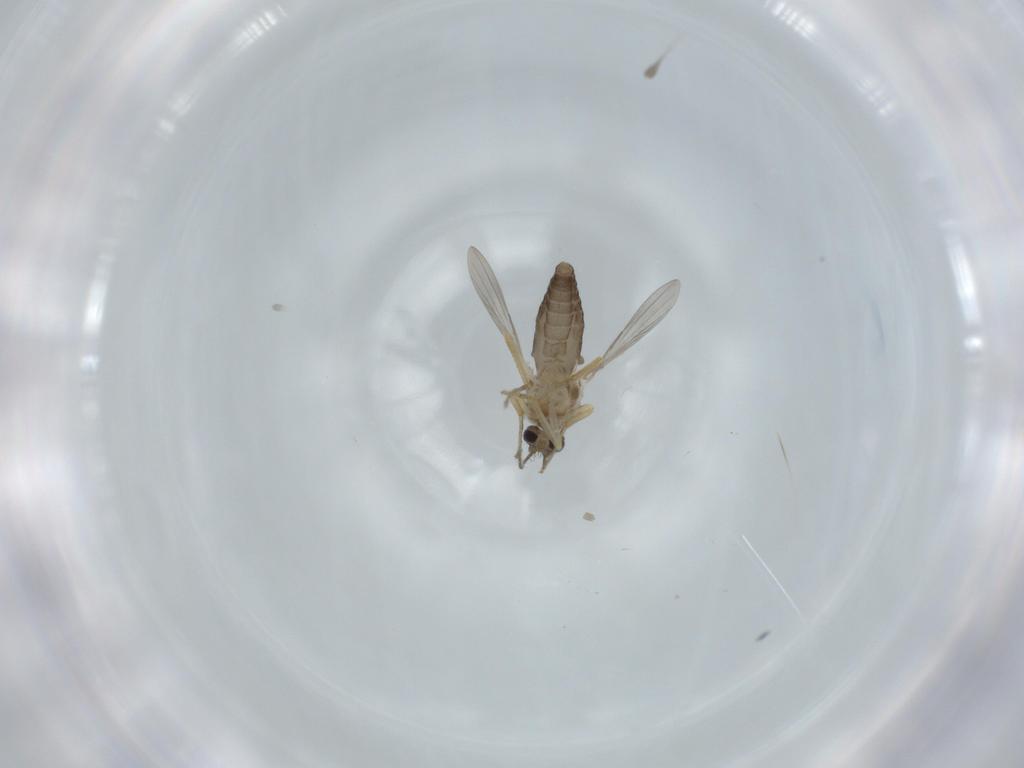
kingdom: Animalia
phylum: Arthropoda
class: Insecta
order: Diptera
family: Ceratopogonidae
